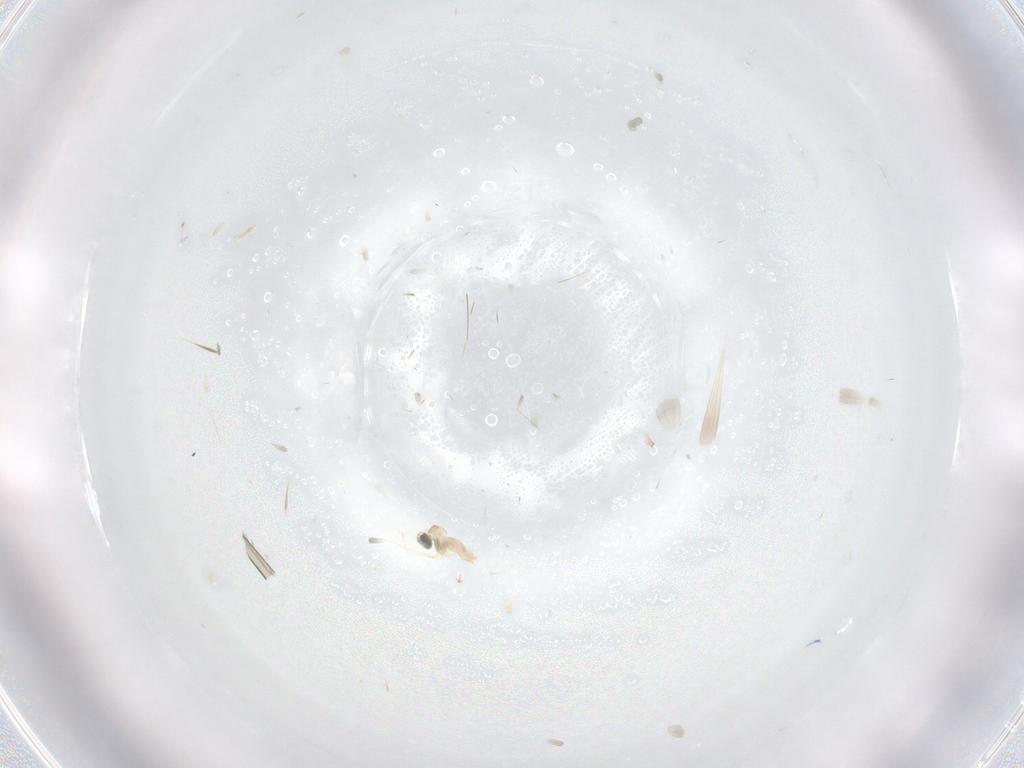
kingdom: Animalia
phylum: Arthropoda
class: Insecta
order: Diptera
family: Cecidomyiidae
